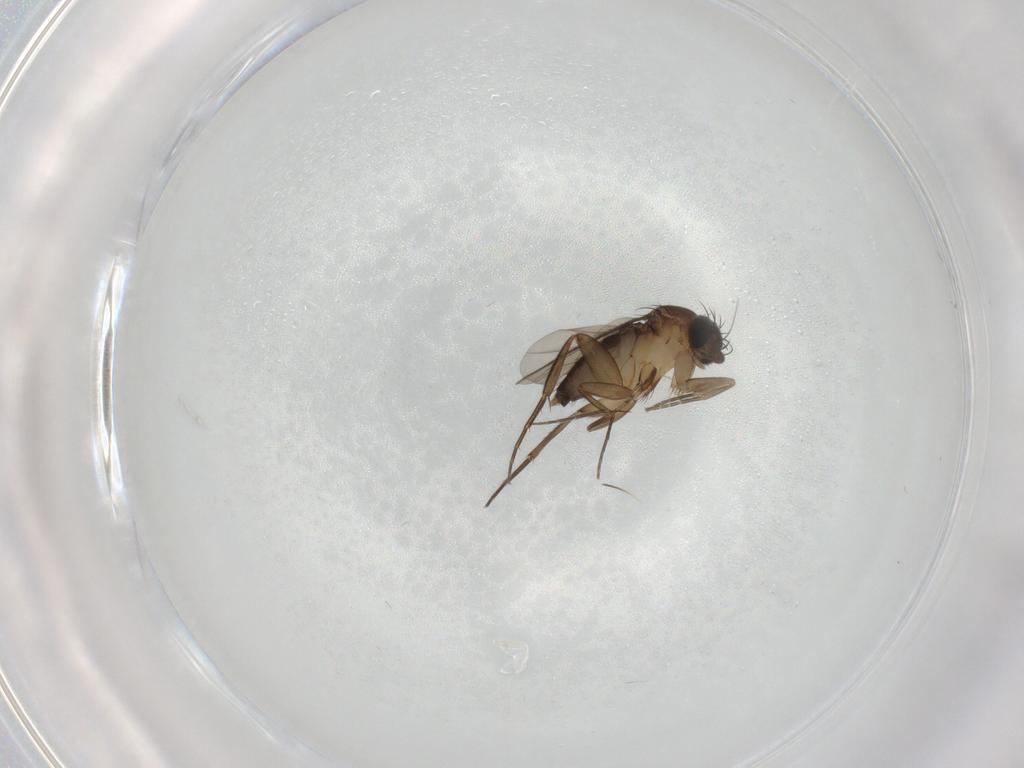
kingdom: Animalia
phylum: Arthropoda
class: Insecta
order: Diptera
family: Phoridae
